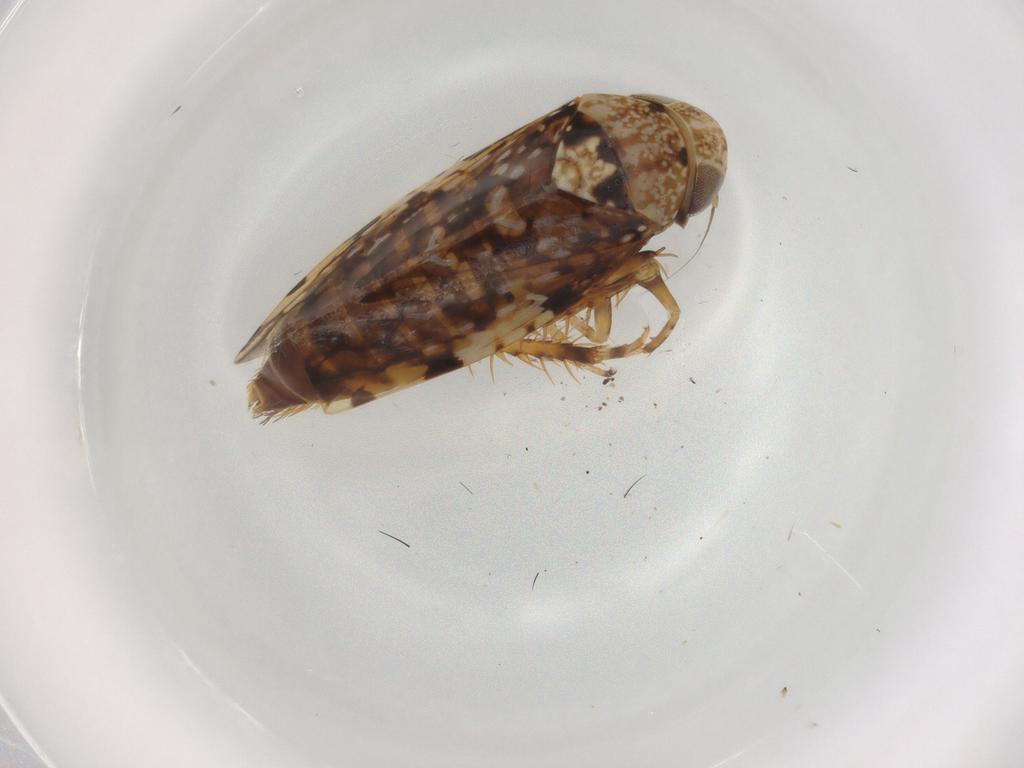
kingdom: Animalia
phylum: Arthropoda
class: Insecta
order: Hemiptera
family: Cicadellidae
